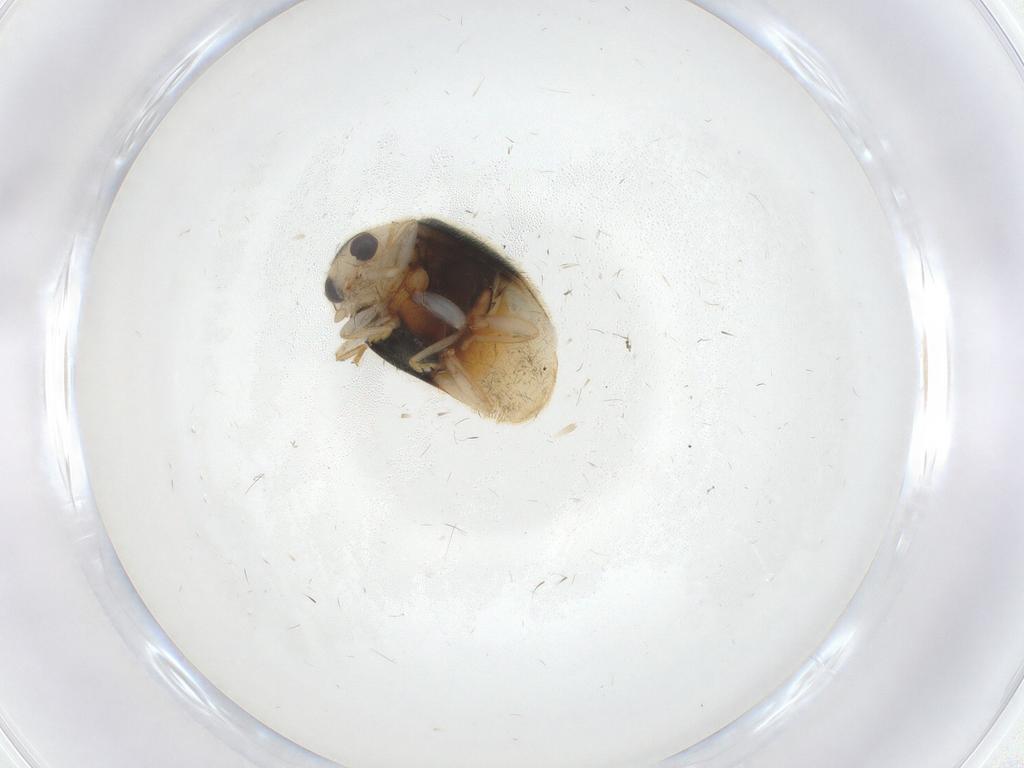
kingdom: Animalia
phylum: Arthropoda
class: Insecta
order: Coleoptera
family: Coccinellidae
